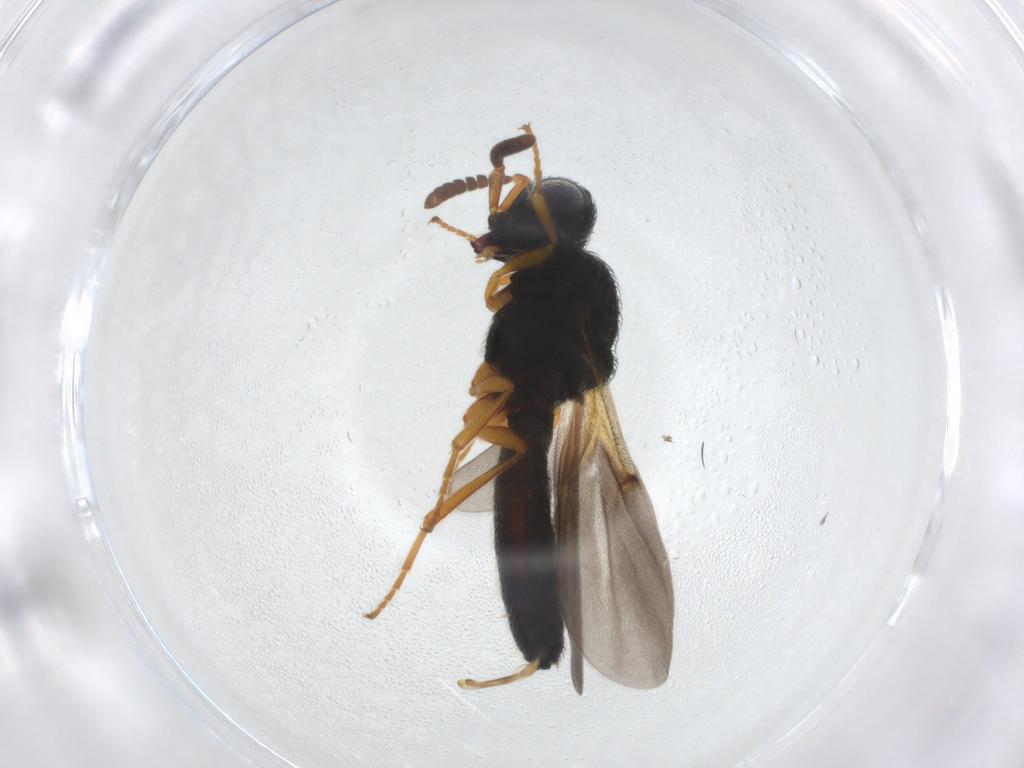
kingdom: Animalia
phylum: Arthropoda
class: Insecta
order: Hymenoptera
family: Scelionidae
